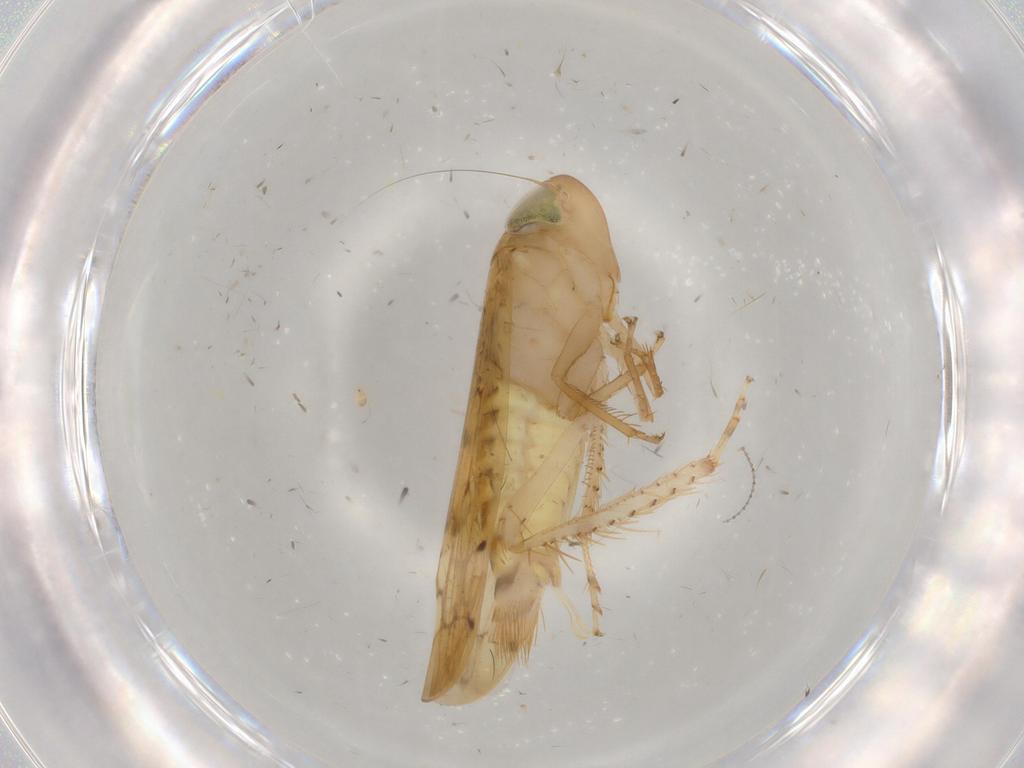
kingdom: Animalia
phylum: Arthropoda
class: Insecta
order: Hemiptera
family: Cicadellidae
